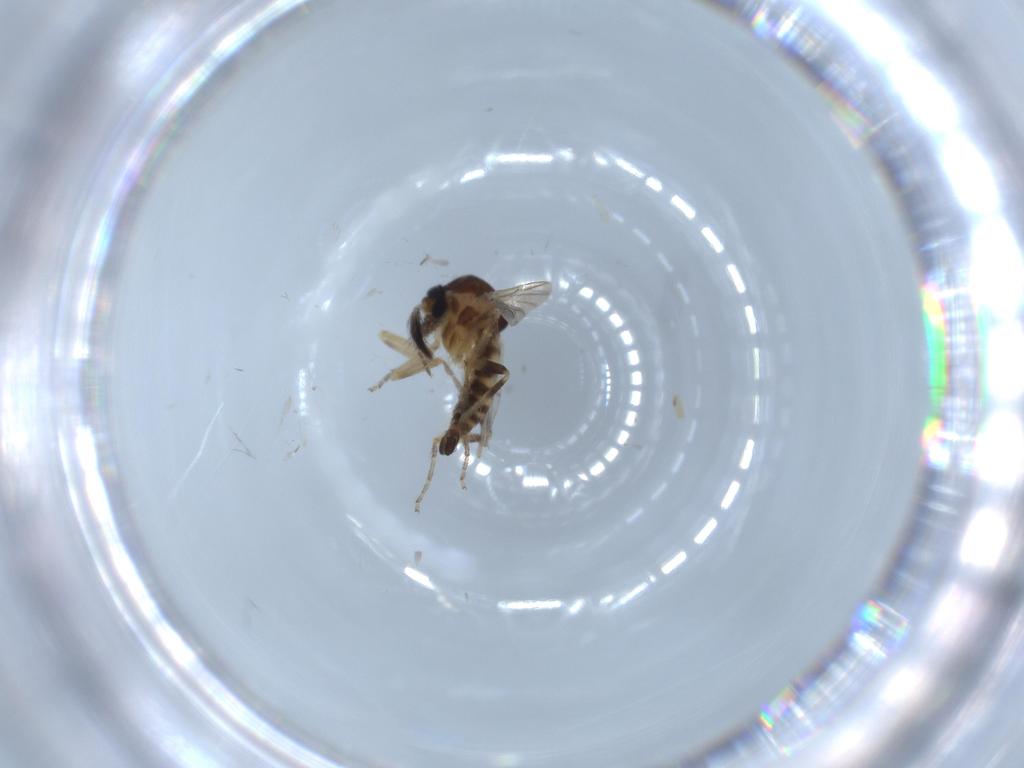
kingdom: Animalia
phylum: Arthropoda
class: Insecta
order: Diptera
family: Ceratopogonidae
